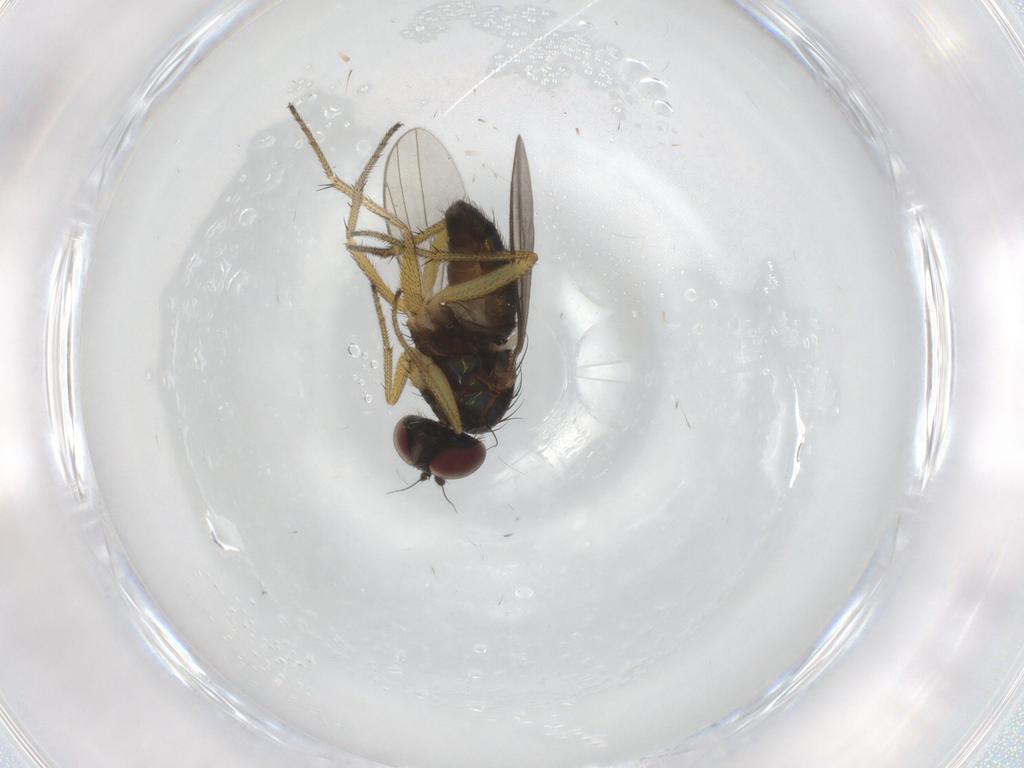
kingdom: Animalia
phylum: Arthropoda
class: Insecta
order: Diptera
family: Dolichopodidae
